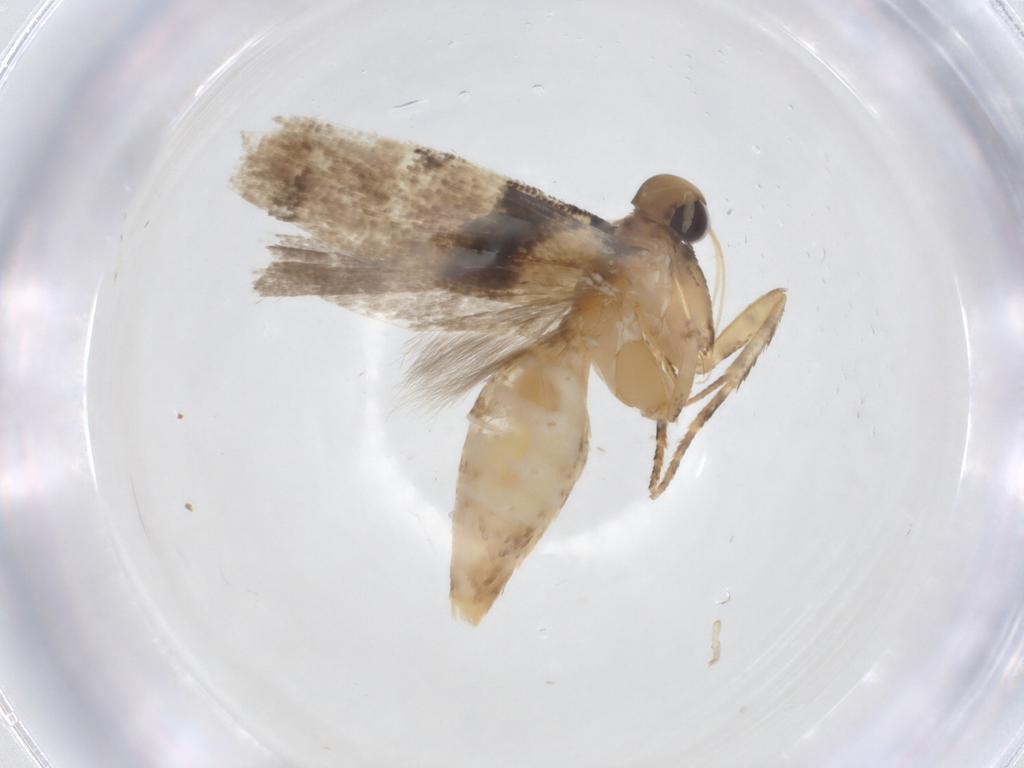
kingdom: Animalia
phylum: Arthropoda
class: Insecta
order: Lepidoptera
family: Gelechiidae
